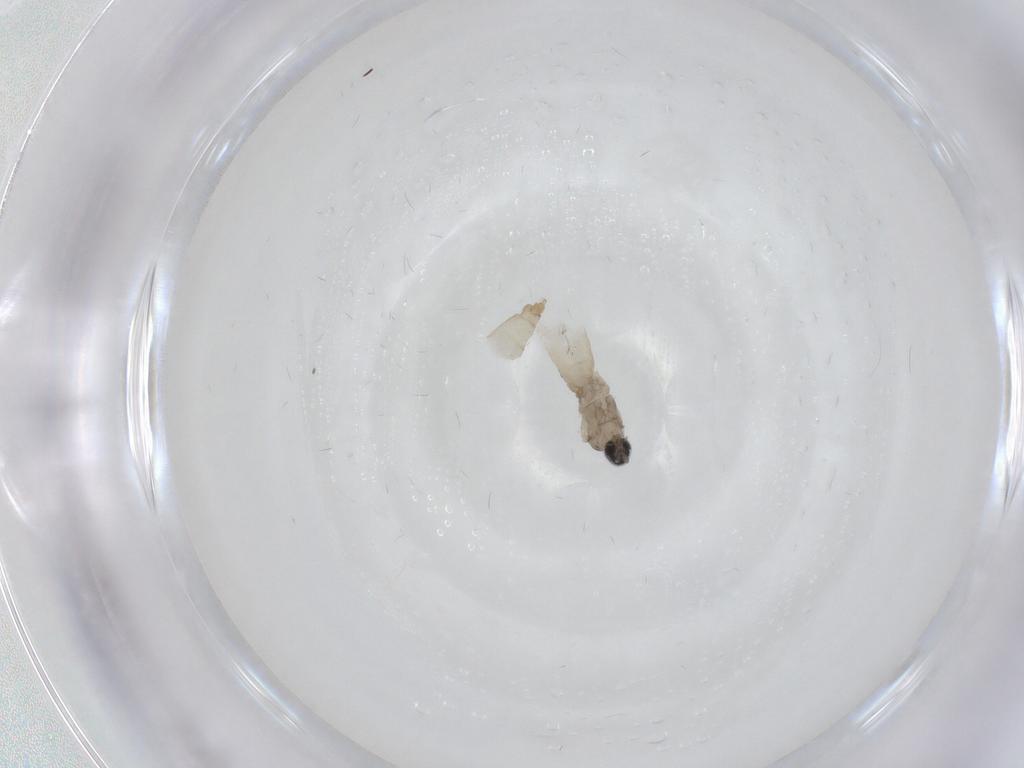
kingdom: Animalia
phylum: Arthropoda
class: Insecta
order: Diptera
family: Cecidomyiidae
